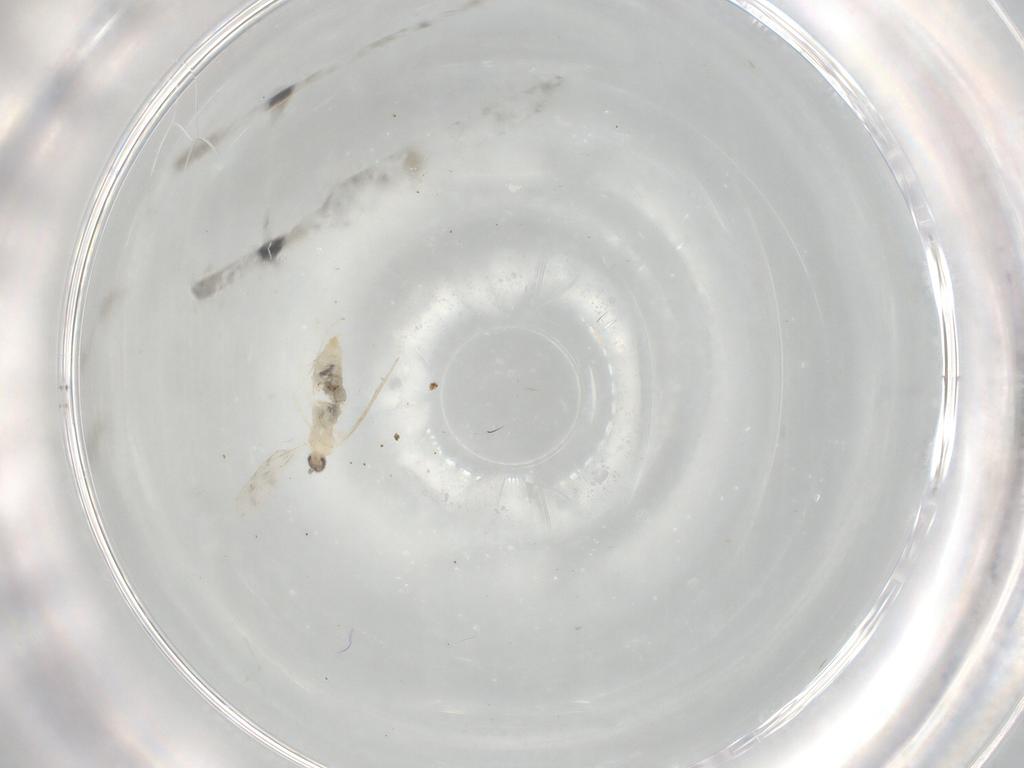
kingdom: Animalia
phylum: Arthropoda
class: Insecta
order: Diptera
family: Cecidomyiidae
